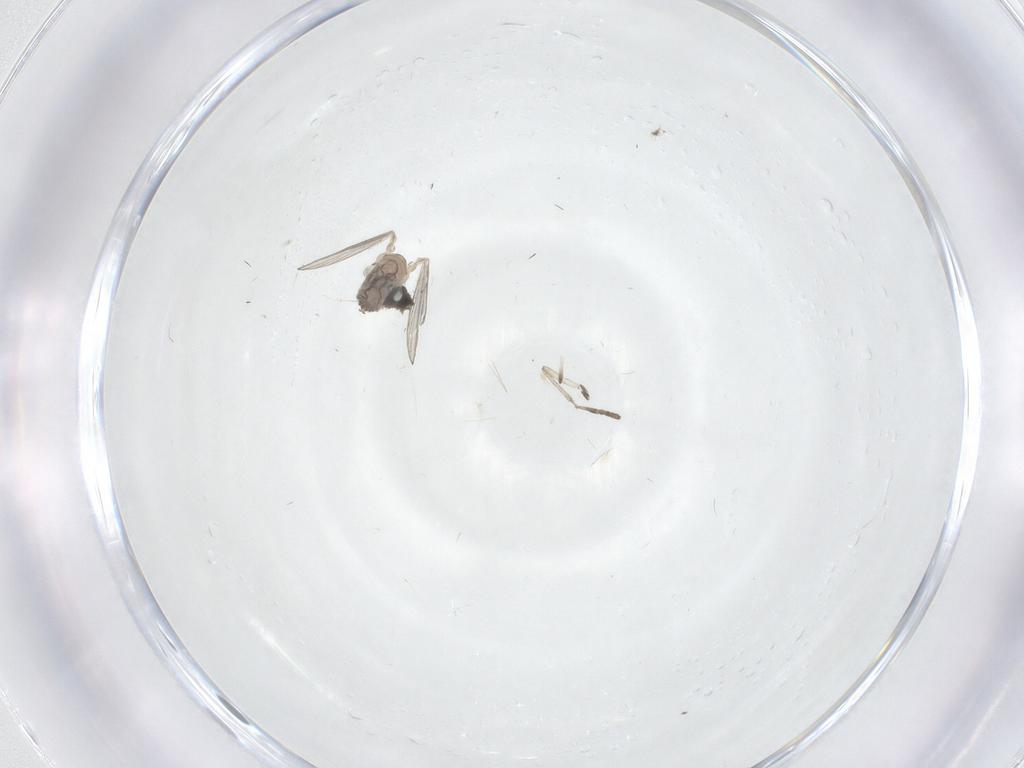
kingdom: Animalia
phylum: Arthropoda
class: Insecta
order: Diptera
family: Psychodidae
